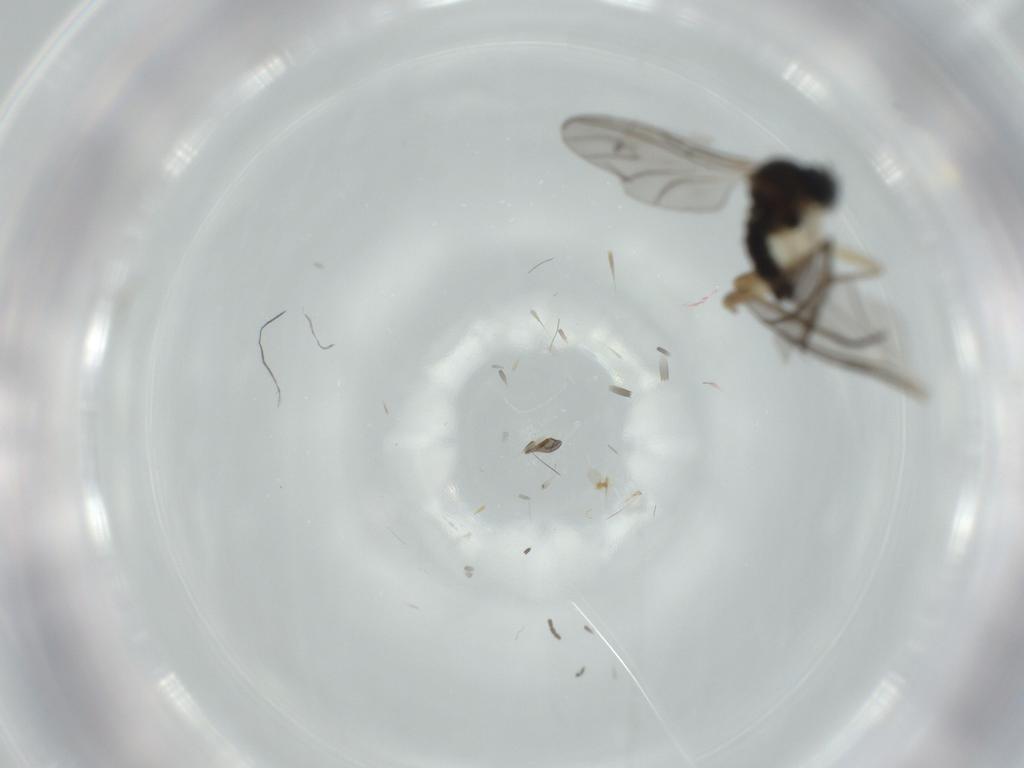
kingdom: Animalia
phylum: Arthropoda
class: Insecta
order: Diptera
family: Cecidomyiidae
